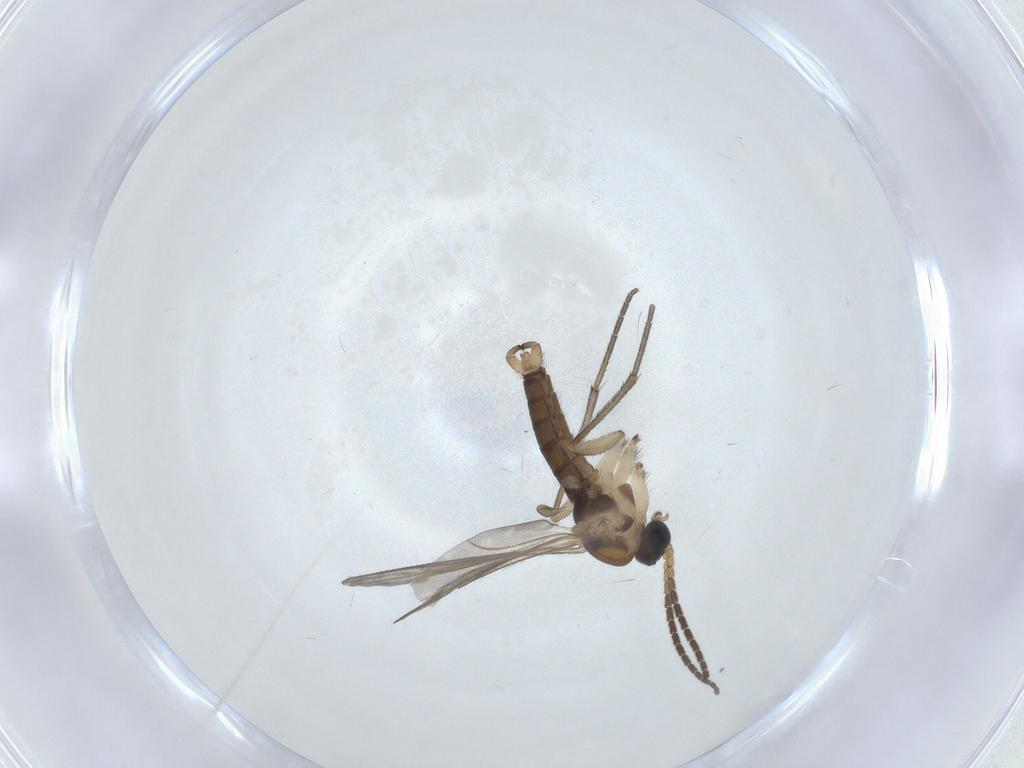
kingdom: Animalia
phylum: Arthropoda
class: Insecta
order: Diptera
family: Sciaridae
